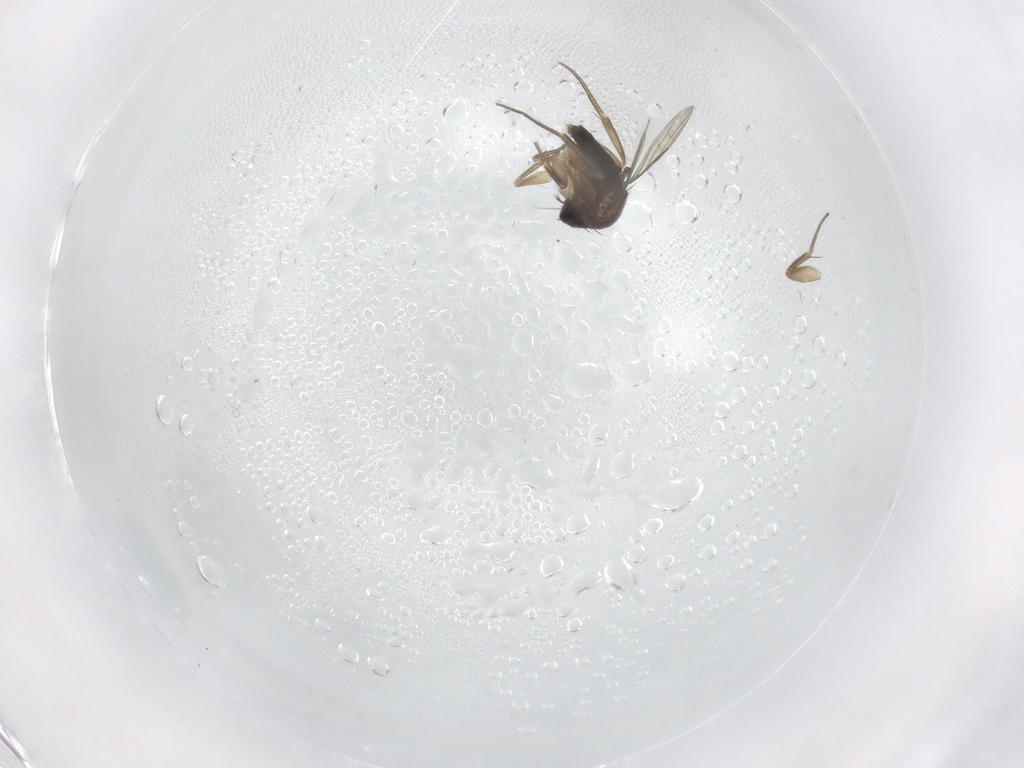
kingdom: Animalia
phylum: Arthropoda
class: Insecta
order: Diptera
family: Phoridae
